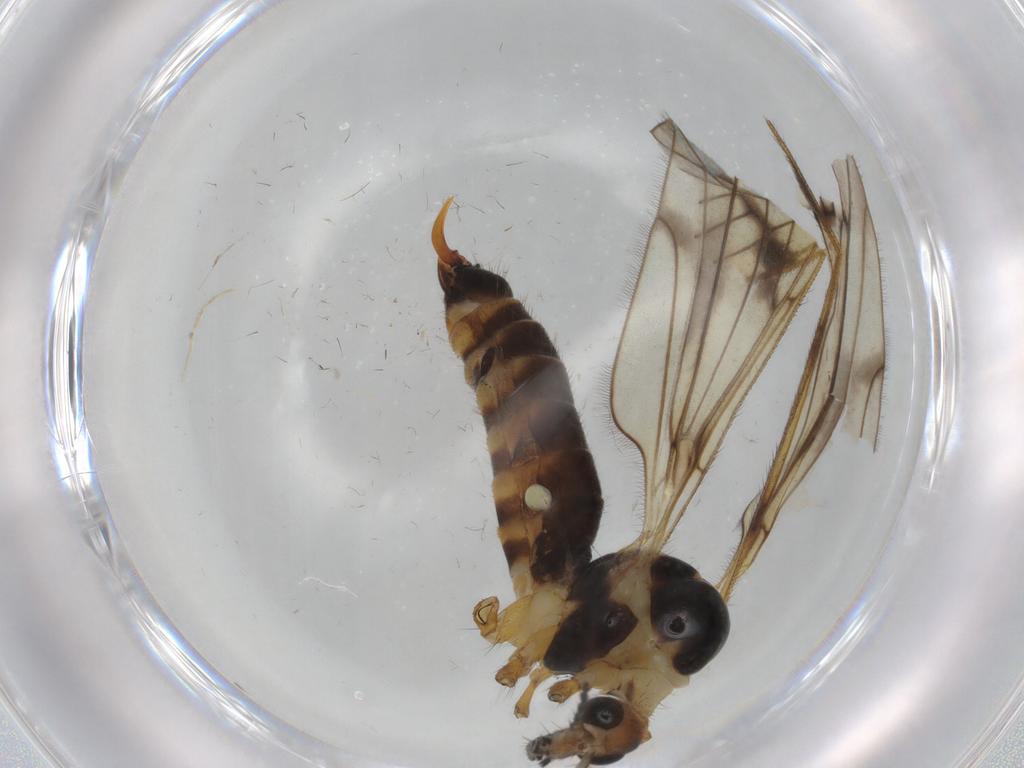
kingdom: Animalia
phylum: Arthropoda
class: Insecta
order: Diptera
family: Limoniidae
